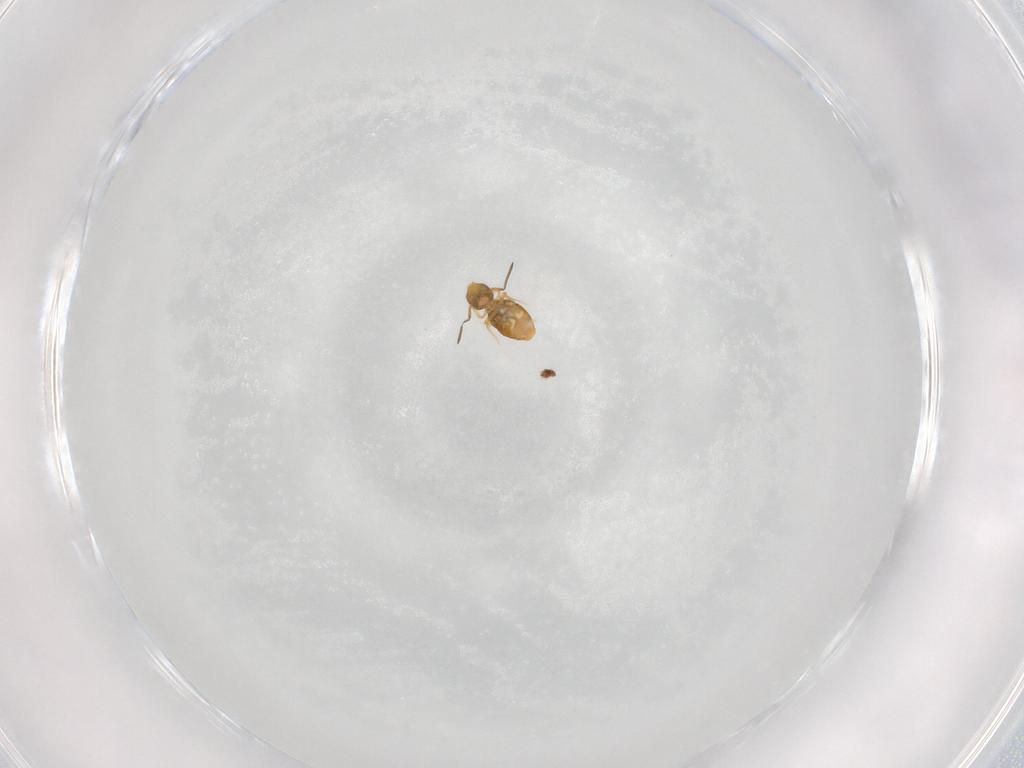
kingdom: Animalia
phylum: Arthropoda
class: Collembola
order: Symphypleona
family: Katiannidae
